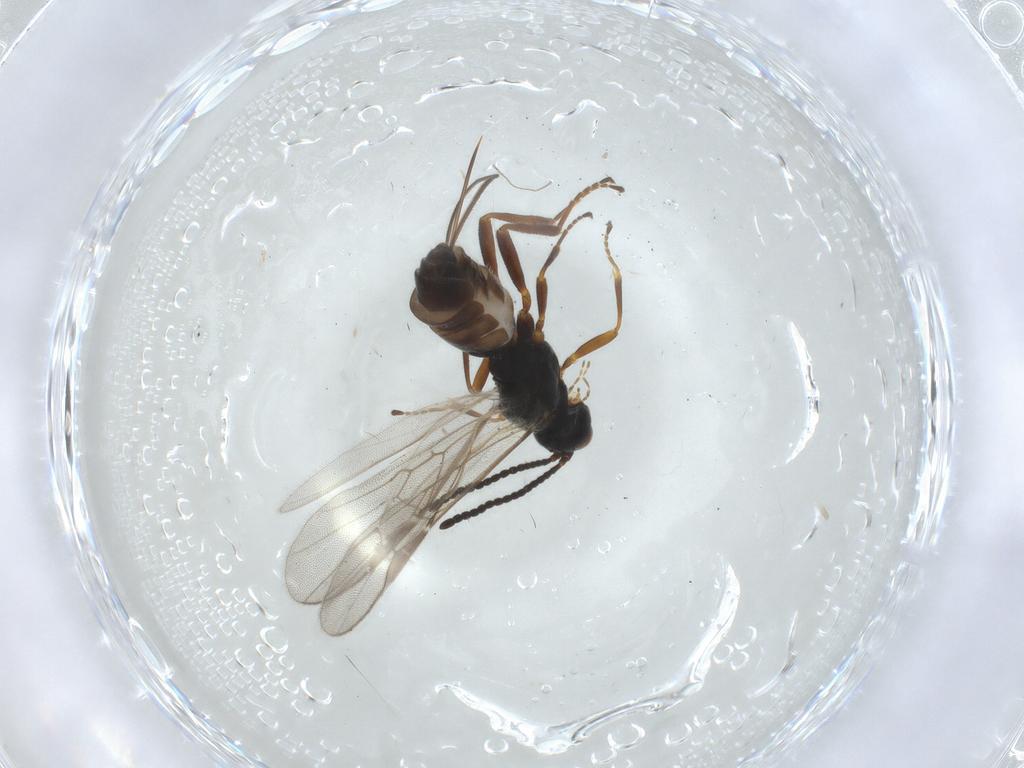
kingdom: Animalia
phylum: Arthropoda
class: Insecta
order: Hymenoptera
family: Braconidae
